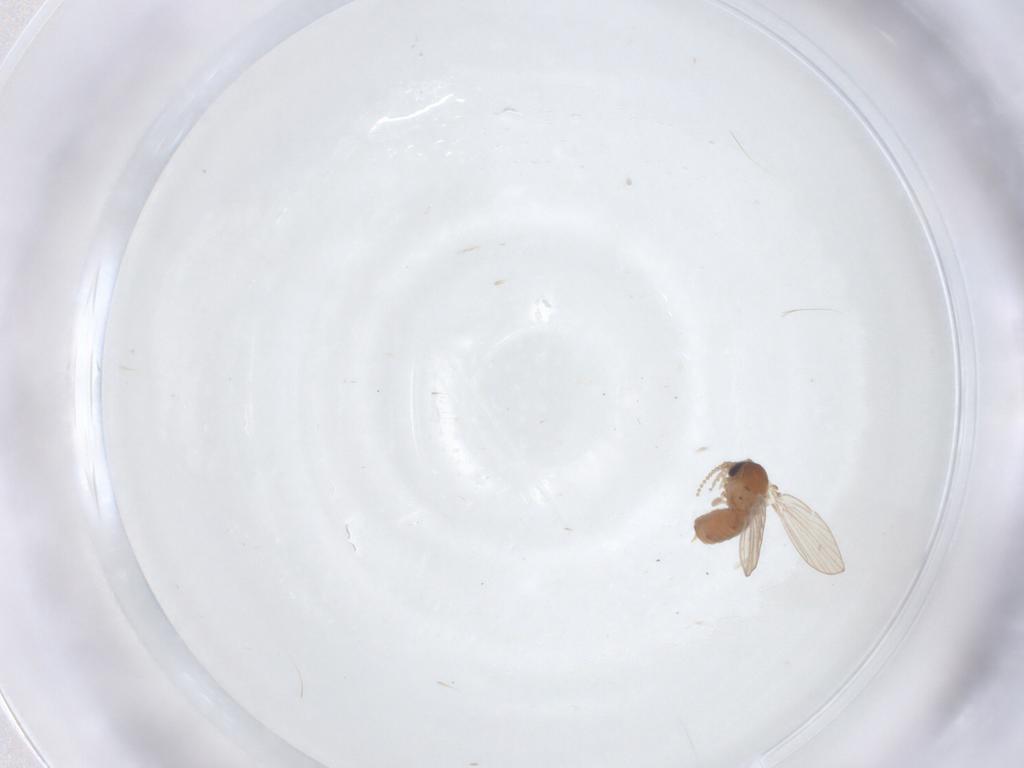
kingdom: Animalia
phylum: Arthropoda
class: Insecta
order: Diptera
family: Psychodidae
